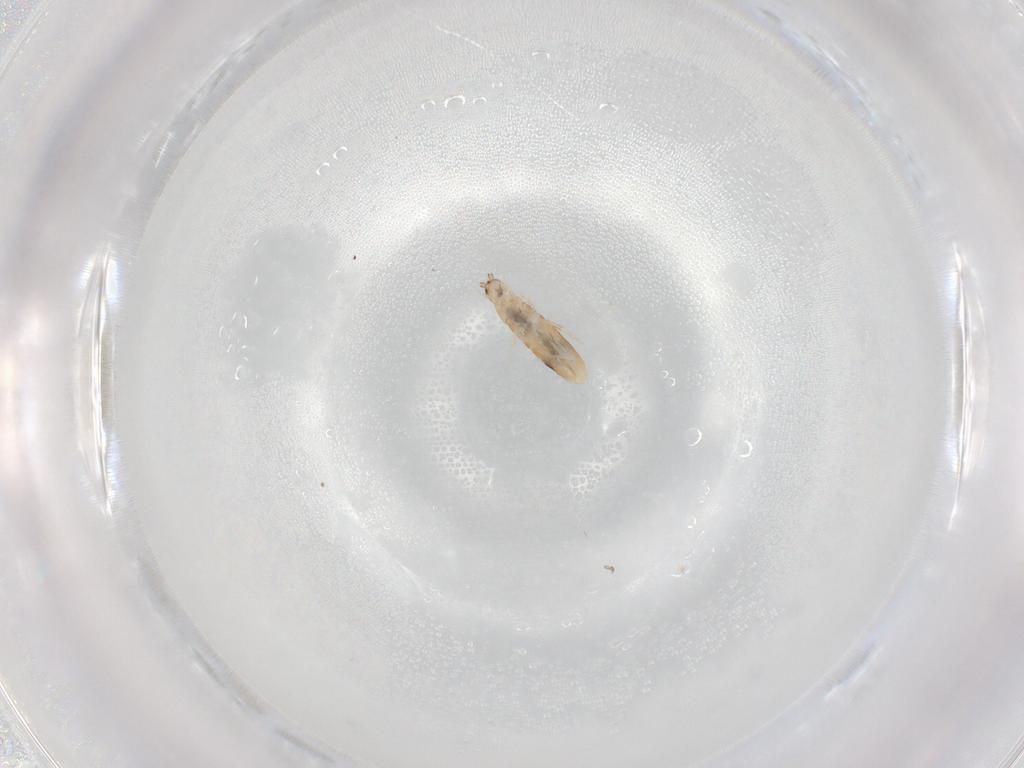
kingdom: Animalia
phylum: Arthropoda
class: Collembola
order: Entomobryomorpha
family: Entomobryidae
